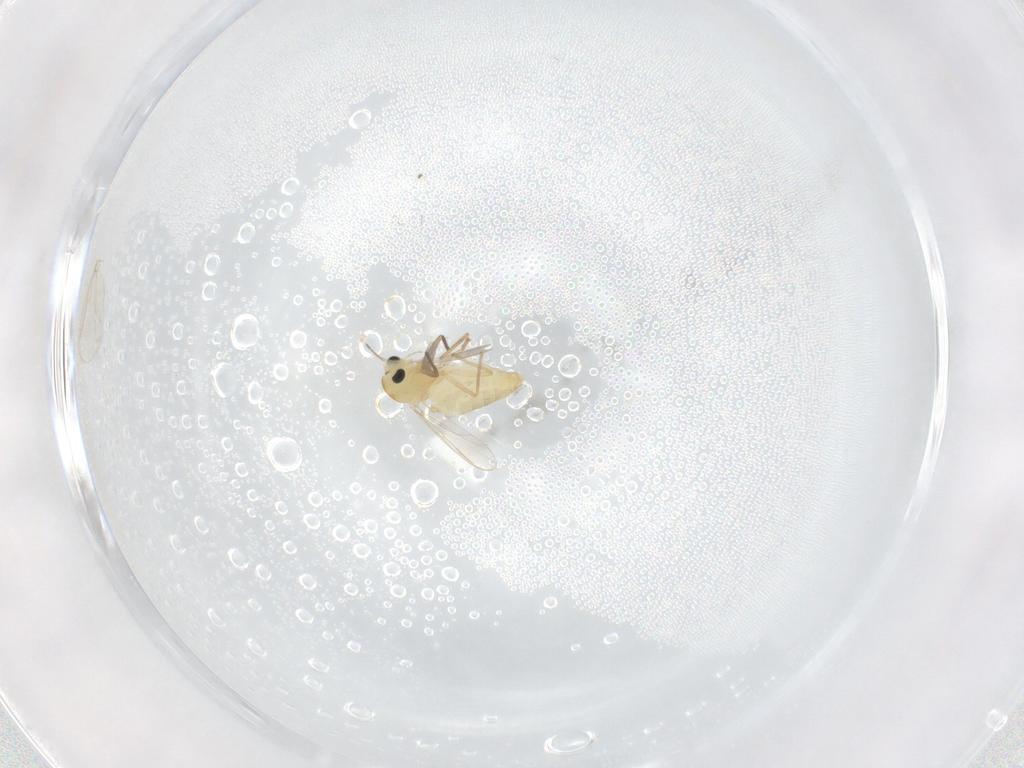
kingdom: Animalia
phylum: Arthropoda
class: Insecta
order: Diptera
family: Chironomidae
